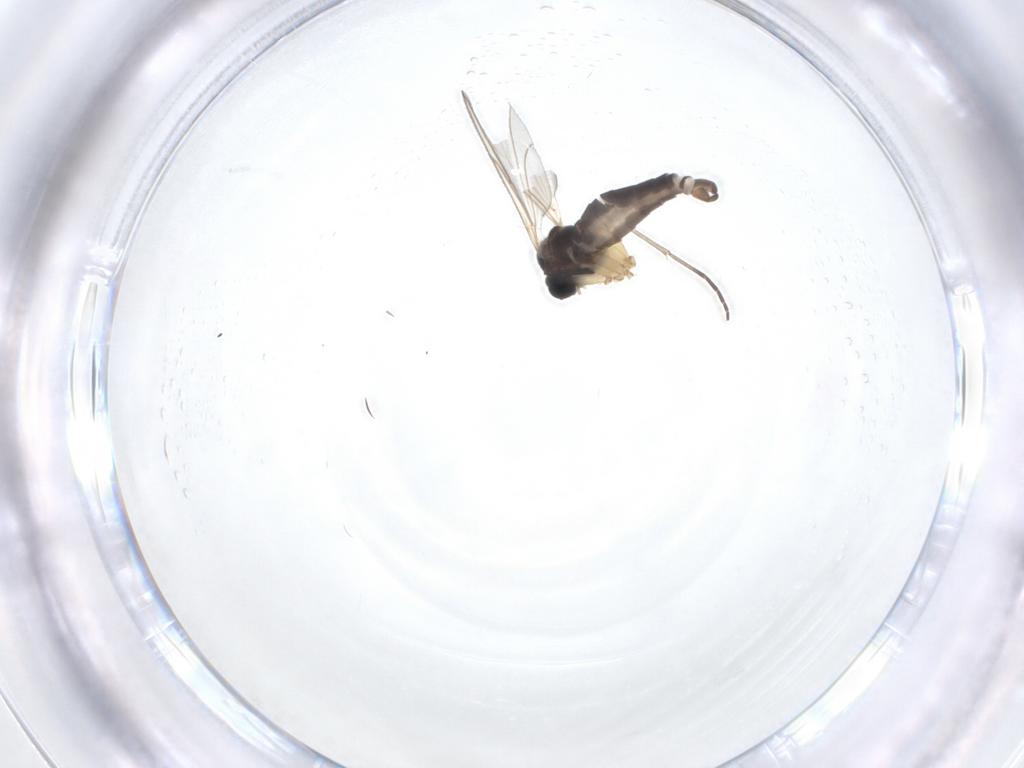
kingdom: Animalia
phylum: Arthropoda
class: Insecta
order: Diptera
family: Sciaridae
